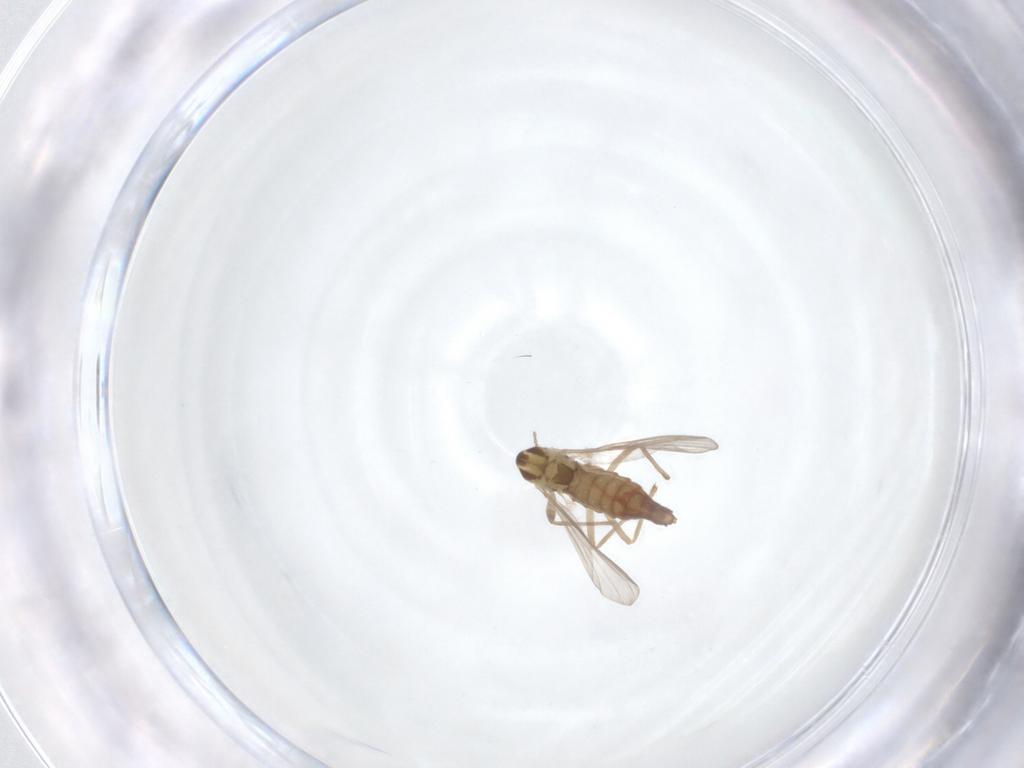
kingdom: Animalia
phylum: Arthropoda
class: Insecta
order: Diptera
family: Chironomidae
